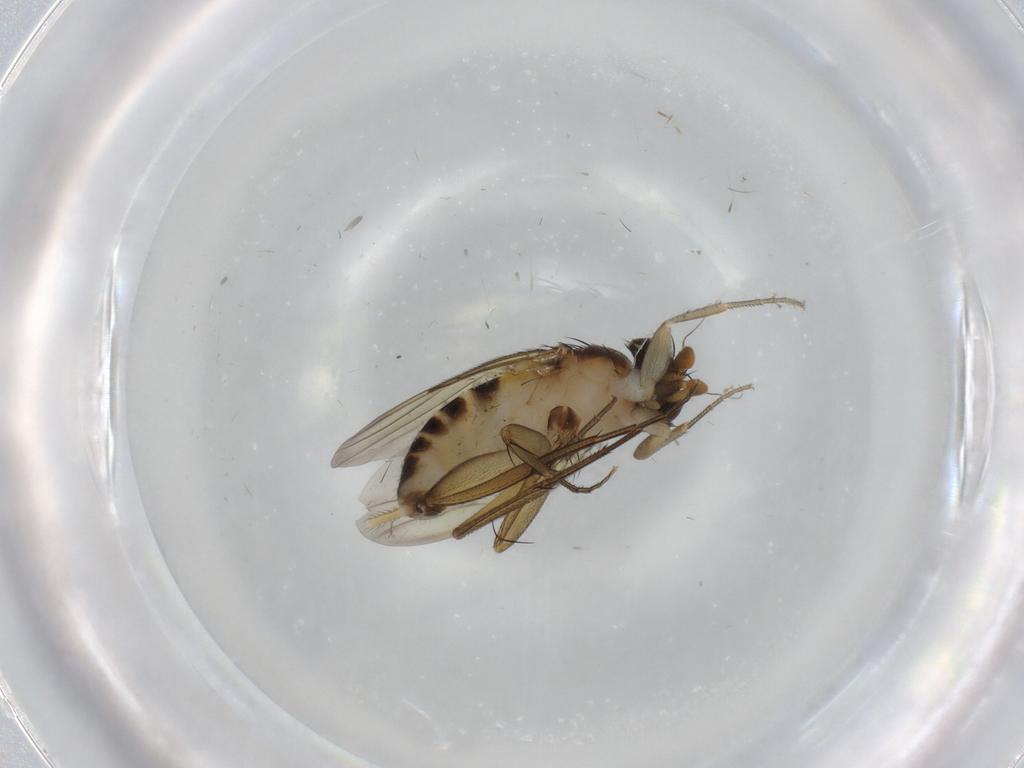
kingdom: Animalia
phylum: Arthropoda
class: Insecta
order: Diptera
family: Phoridae
